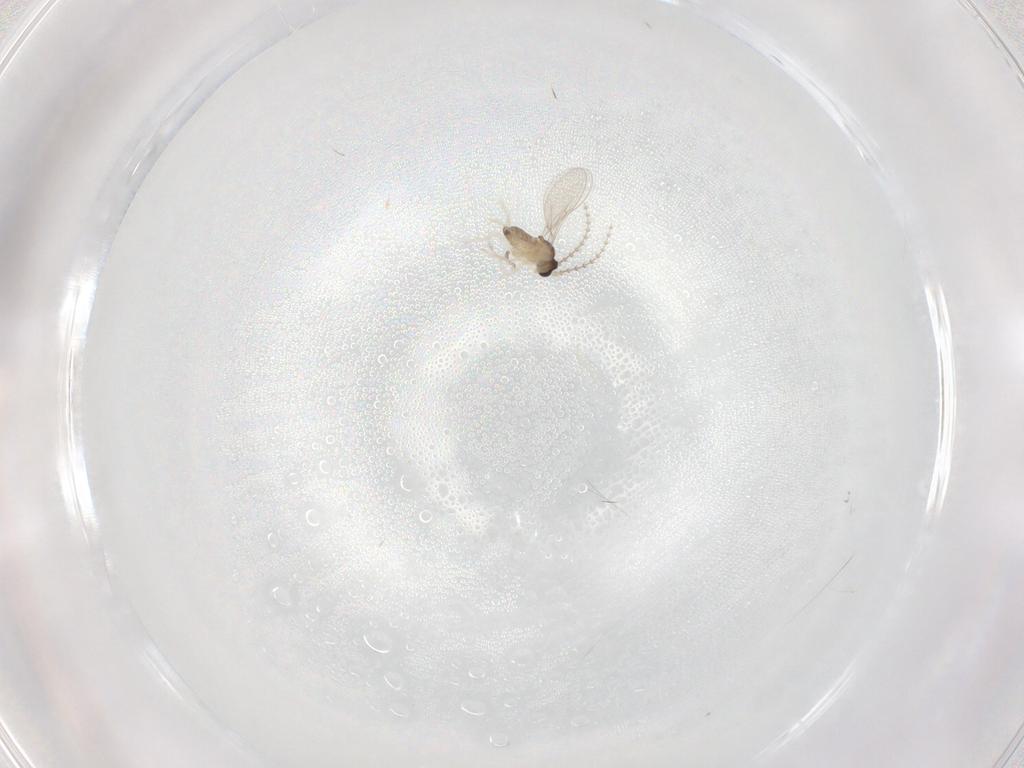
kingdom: Animalia
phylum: Arthropoda
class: Insecta
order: Diptera
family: Cecidomyiidae
